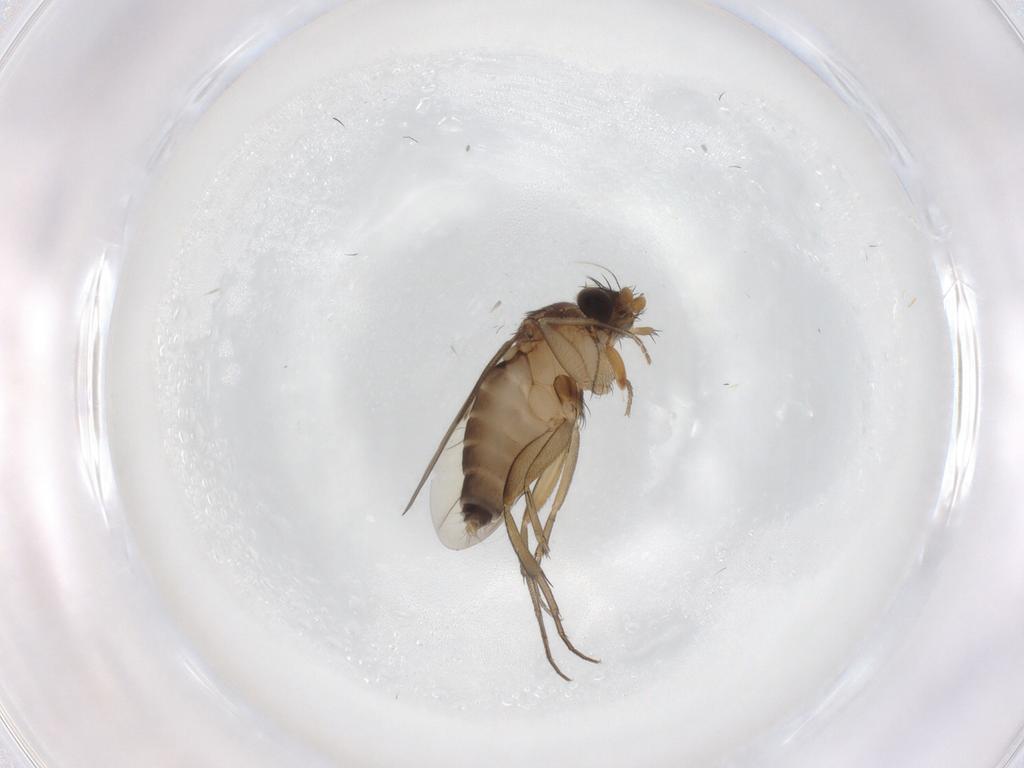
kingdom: Animalia
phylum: Arthropoda
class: Insecta
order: Diptera
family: Phoridae
